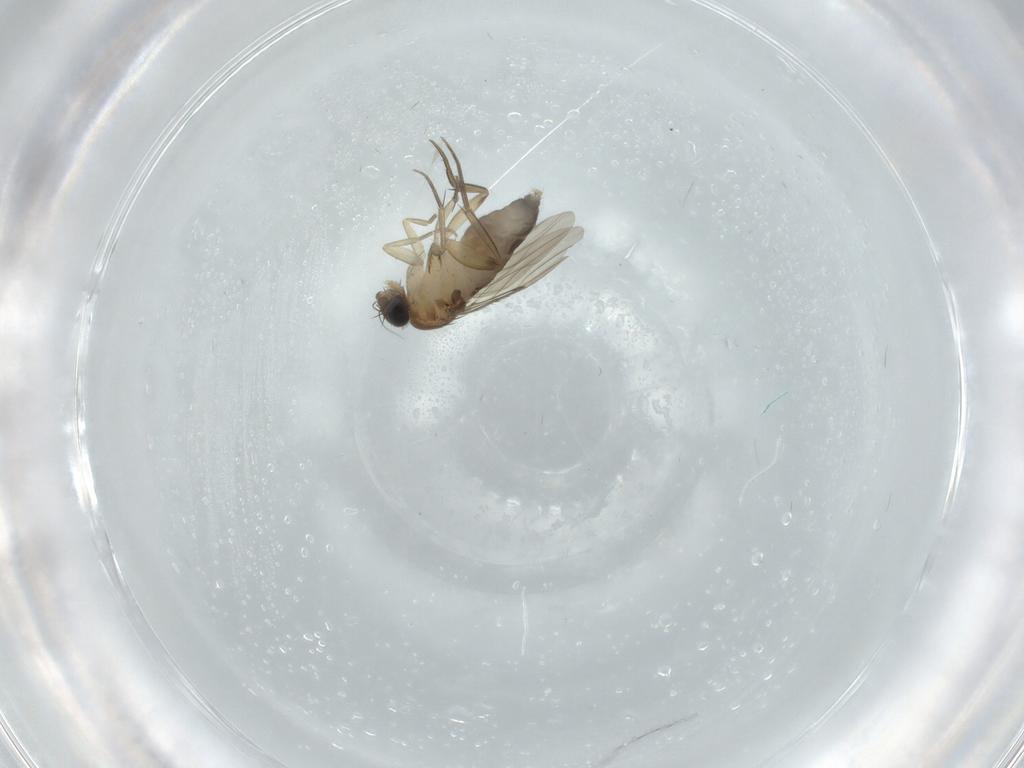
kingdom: Animalia
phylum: Arthropoda
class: Insecta
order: Diptera
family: Phoridae
